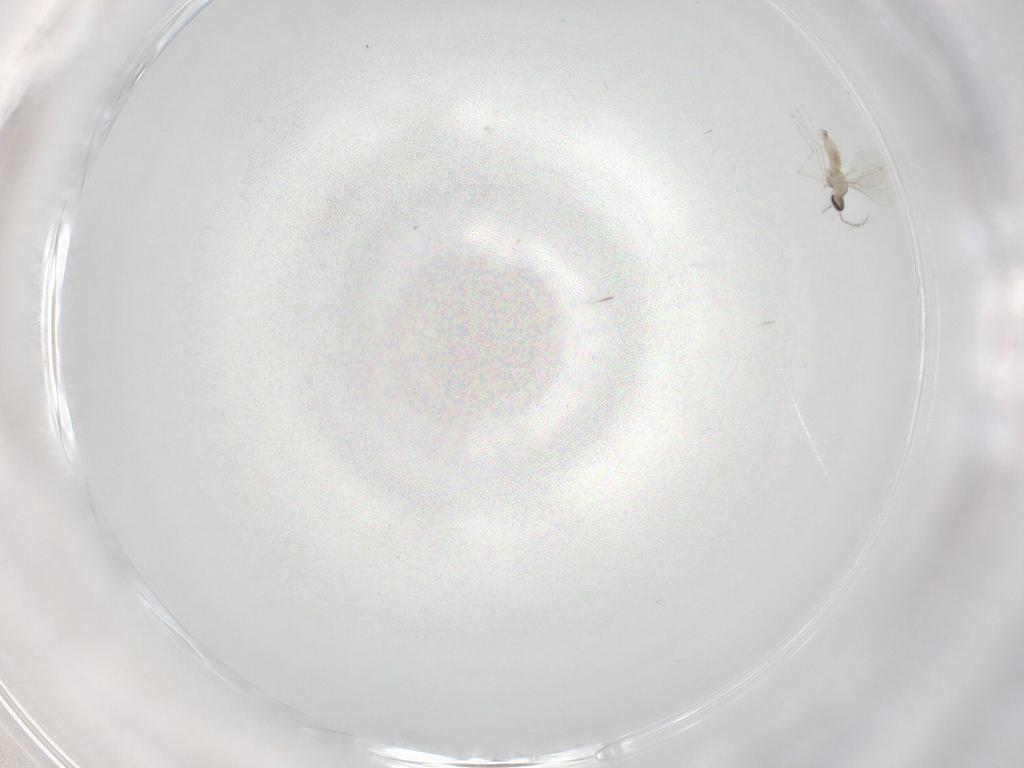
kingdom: Animalia
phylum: Arthropoda
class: Insecta
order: Diptera
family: Cecidomyiidae
